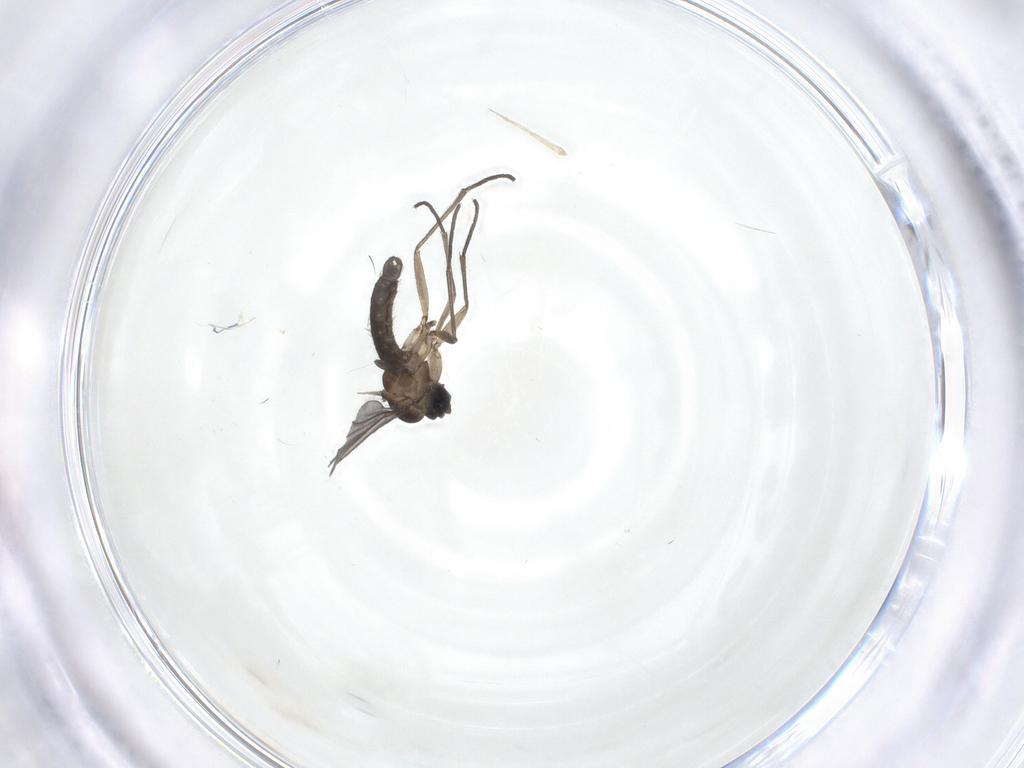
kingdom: Animalia
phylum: Arthropoda
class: Insecta
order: Diptera
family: Sciaridae
